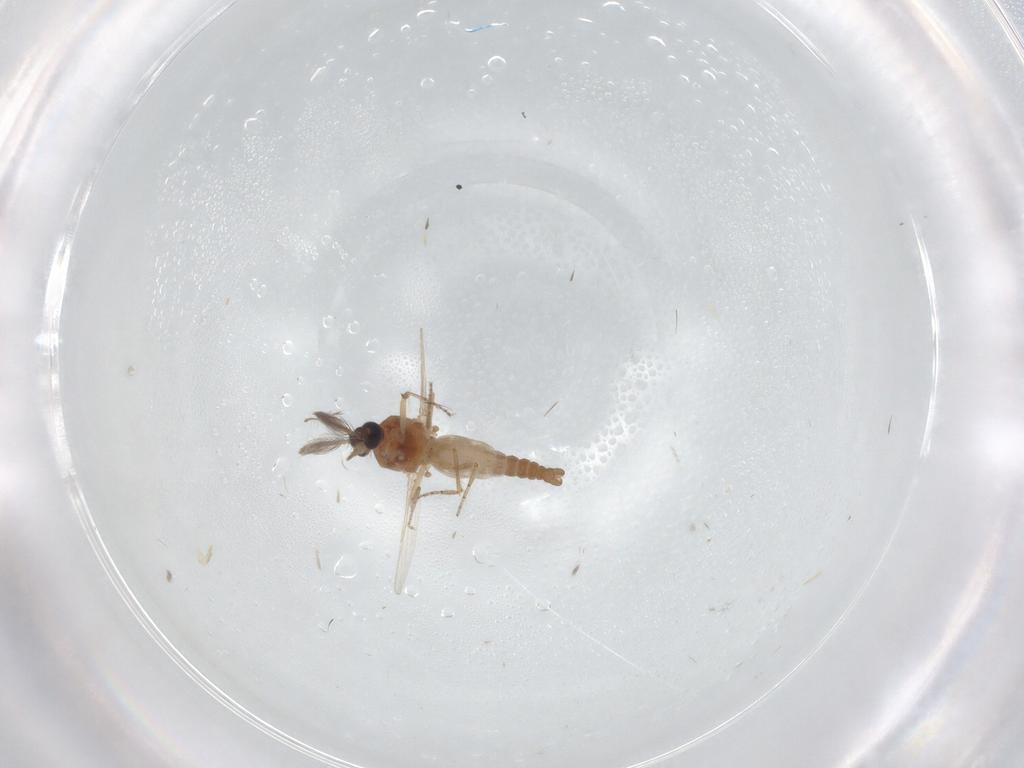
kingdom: Animalia
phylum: Arthropoda
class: Insecta
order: Diptera
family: Ceratopogonidae
